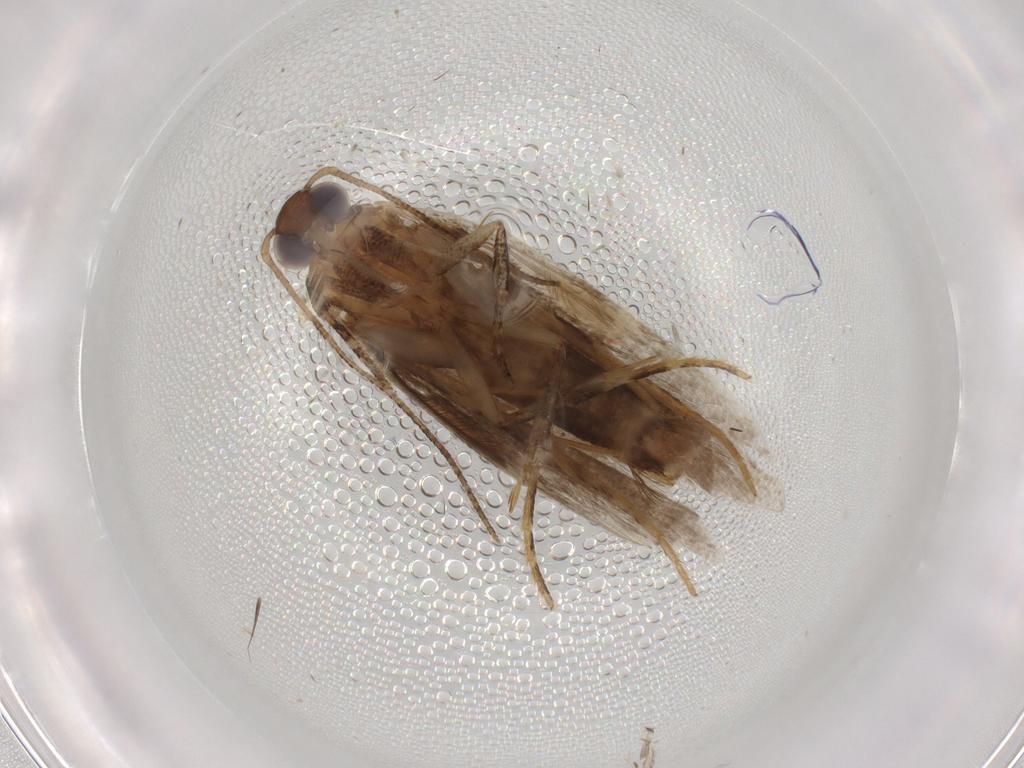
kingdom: Animalia
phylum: Arthropoda
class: Insecta
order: Lepidoptera
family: Gelechiidae
